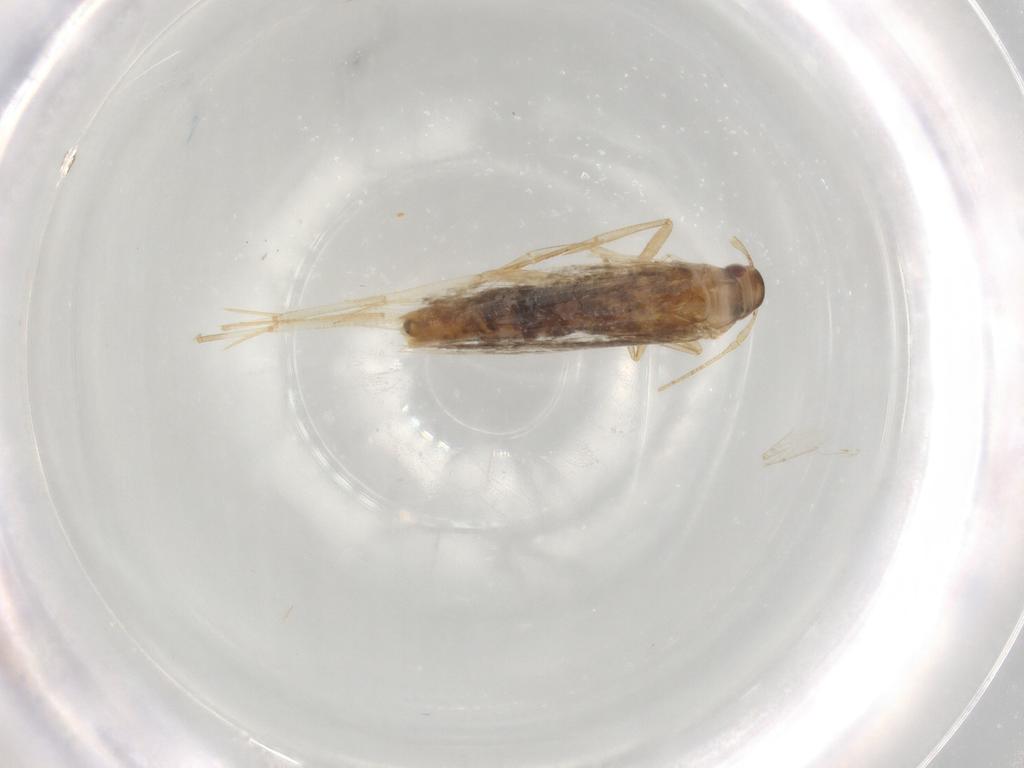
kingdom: Animalia
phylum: Arthropoda
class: Insecta
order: Lepidoptera
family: Cosmopterigidae
